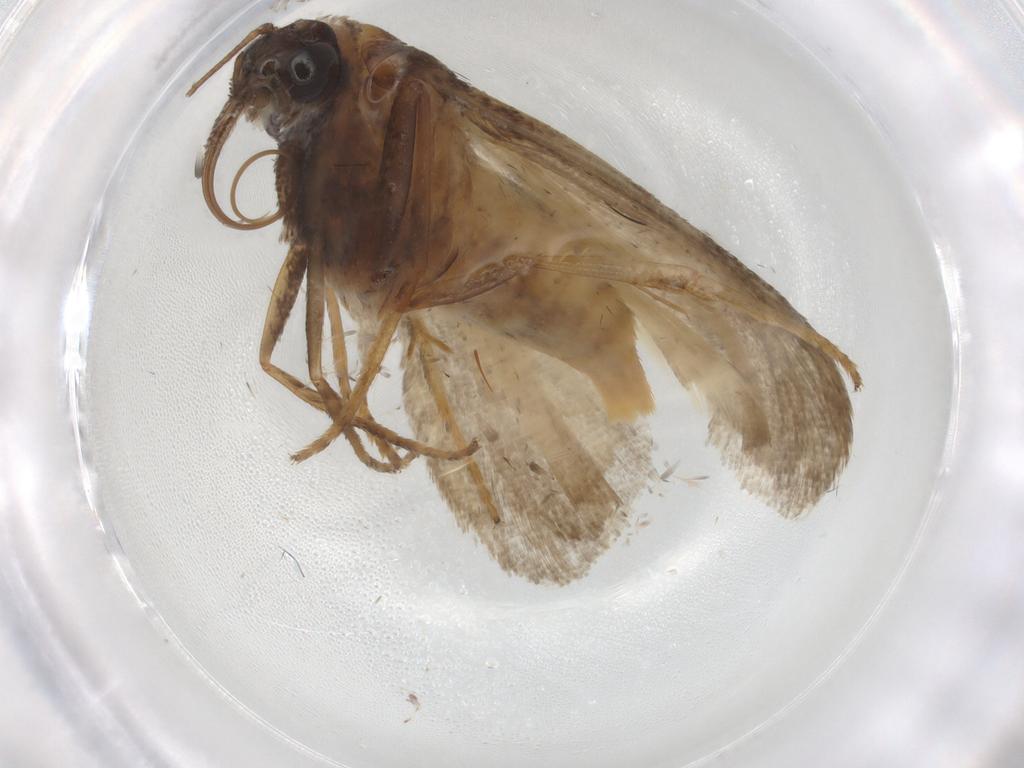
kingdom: Animalia
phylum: Arthropoda
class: Insecta
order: Lepidoptera
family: Pyralidae
